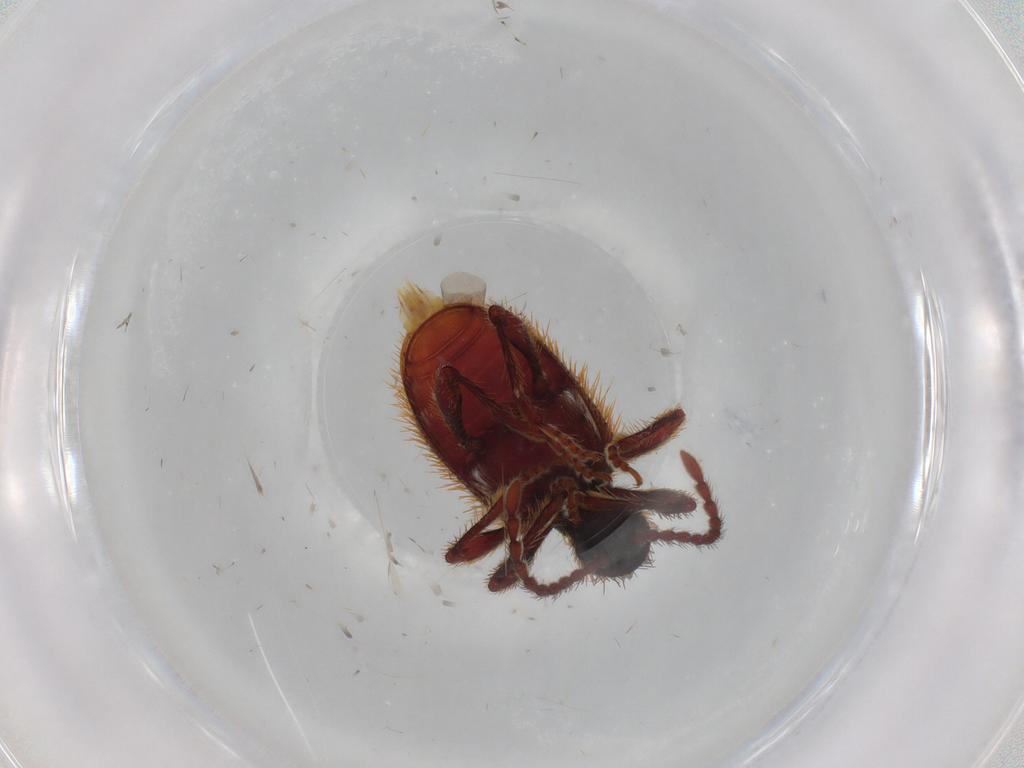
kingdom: Animalia
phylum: Arthropoda
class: Insecta
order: Coleoptera
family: Ptinidae
